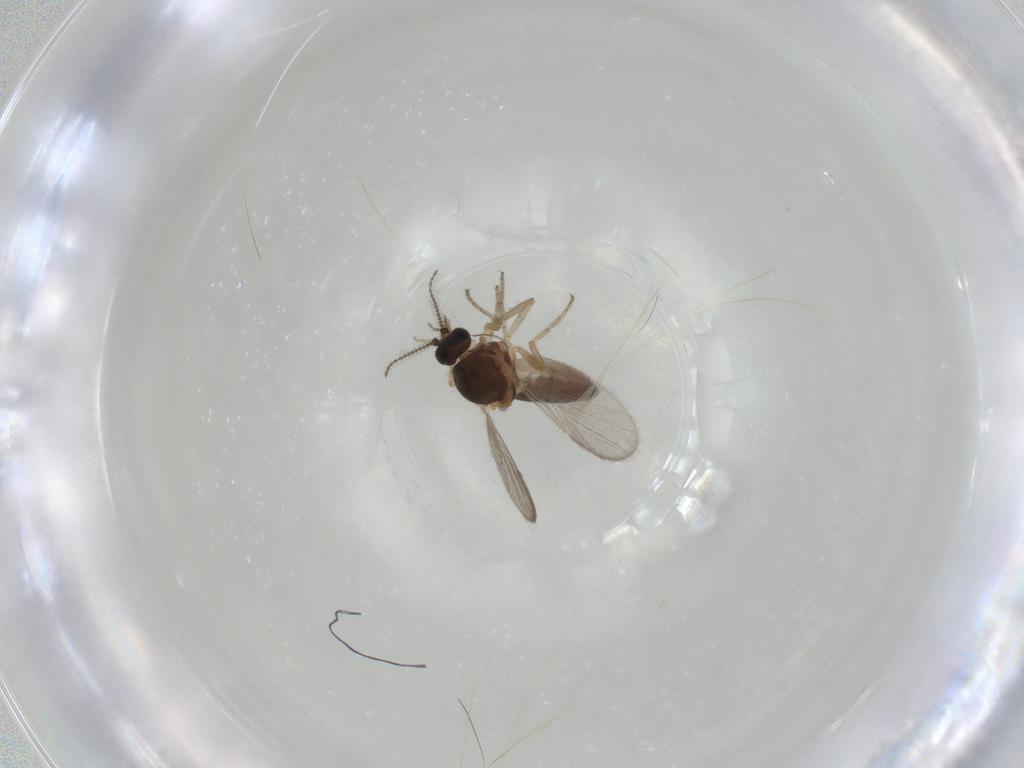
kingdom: Animalia
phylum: Arthropoda
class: Insecta
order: Diptera
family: Ceratopogonidae
